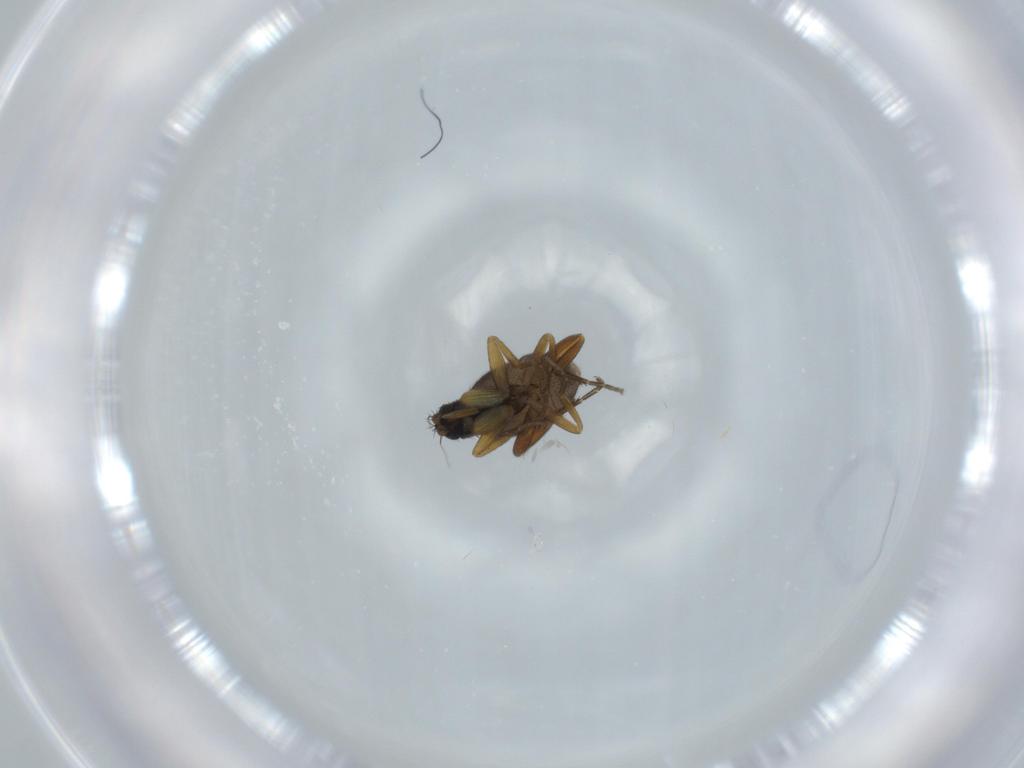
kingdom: Animalia
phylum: Arthropoda
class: Insecta
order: Diptera
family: Phoridae
